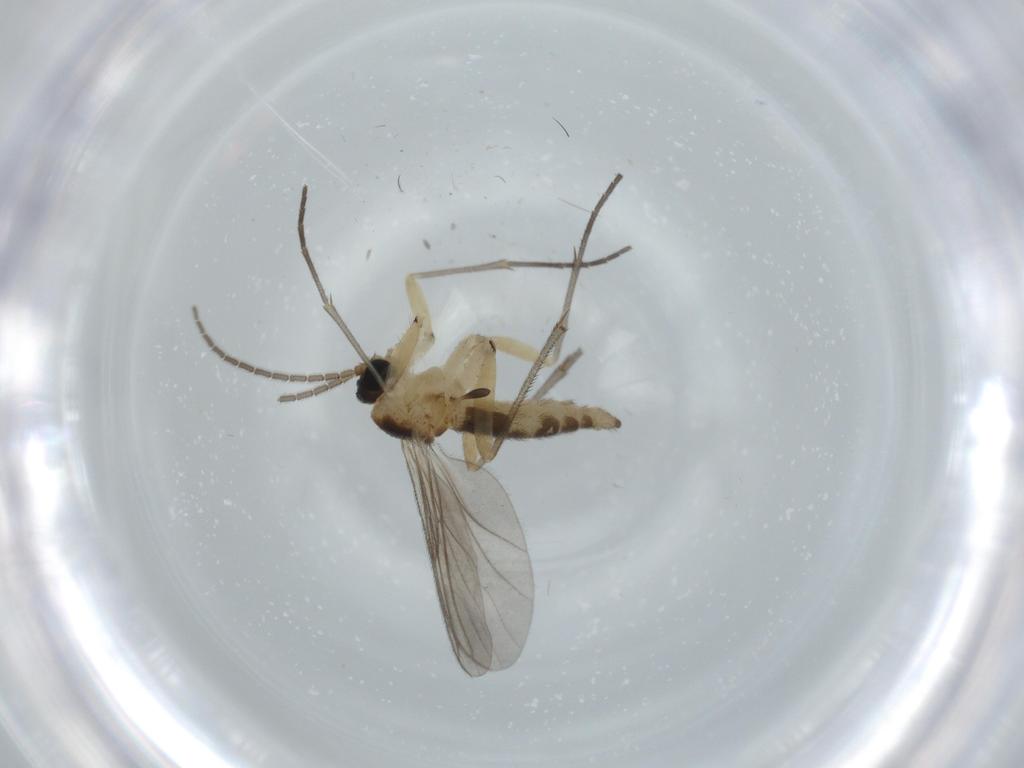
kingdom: Animalia
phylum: Arthropoda
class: Insecta
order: Diptera
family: Sciaridae
